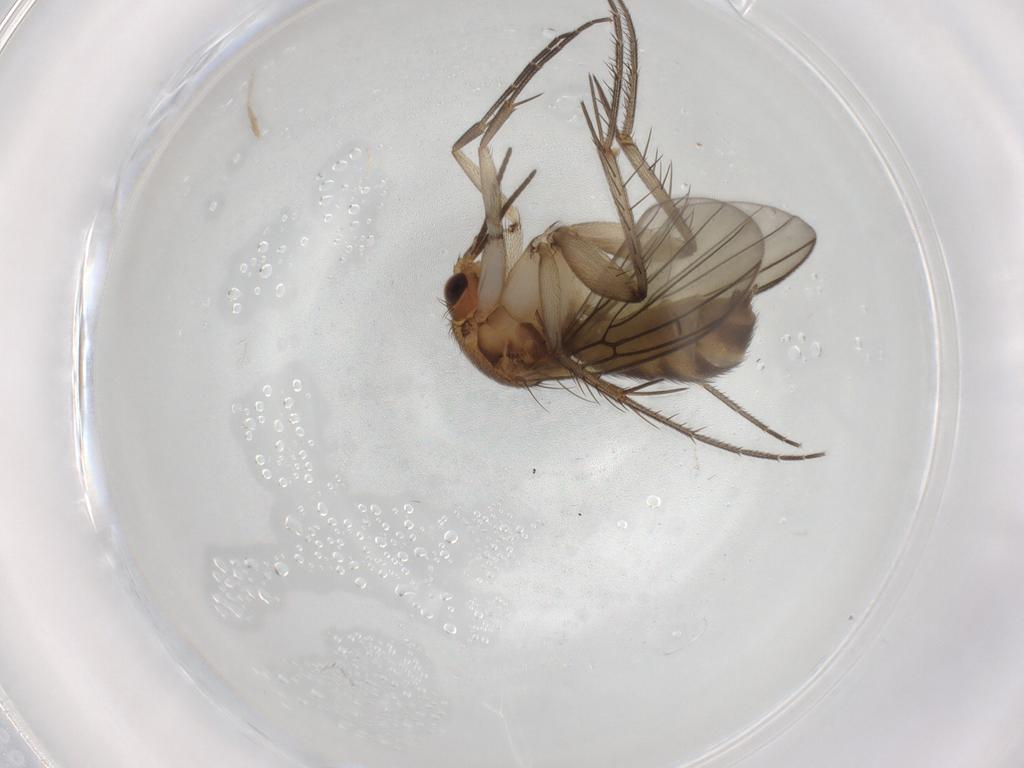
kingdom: Animalia
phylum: Arthropoda
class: Insecta
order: Diptera
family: Mycetophilidae
